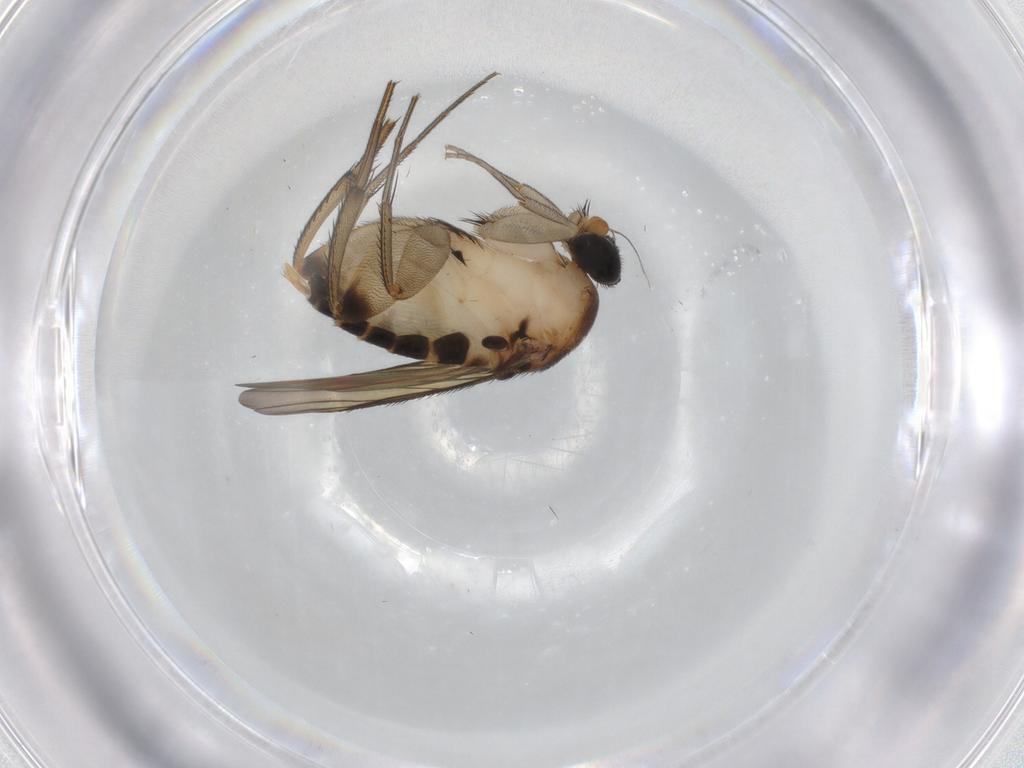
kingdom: Animalia
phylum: Arthropoda
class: Insecta
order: Diptera
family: Phoridae
